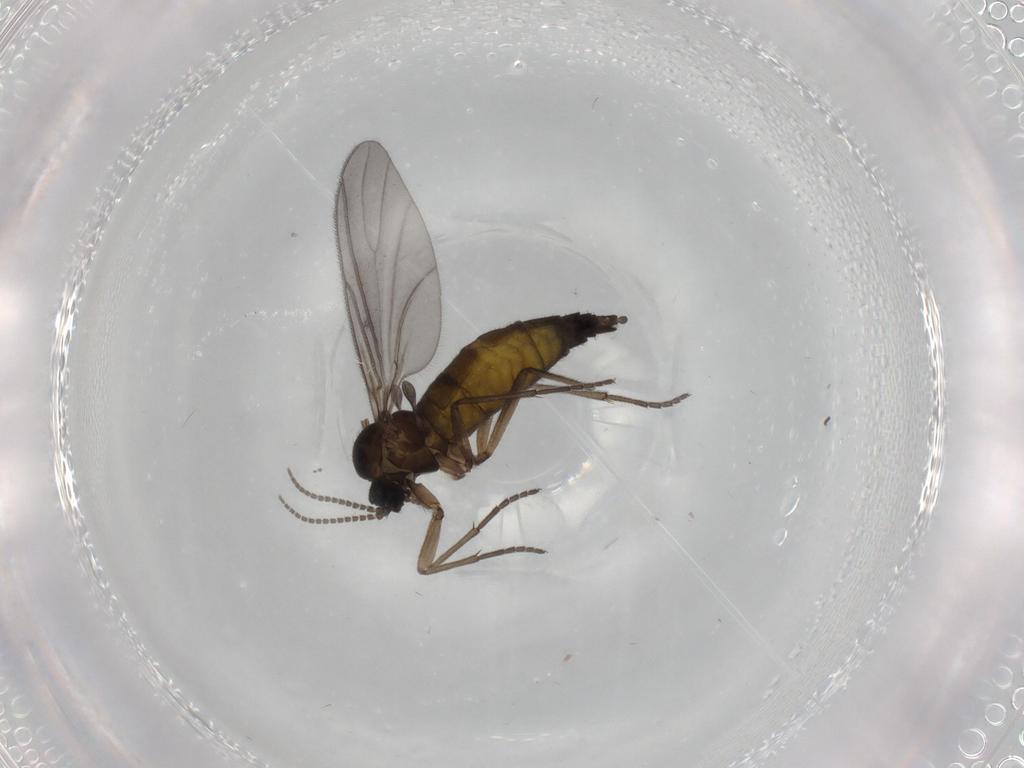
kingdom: Animalia
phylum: Arthropoda
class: Insecta
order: Diptera
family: Sciaridae
